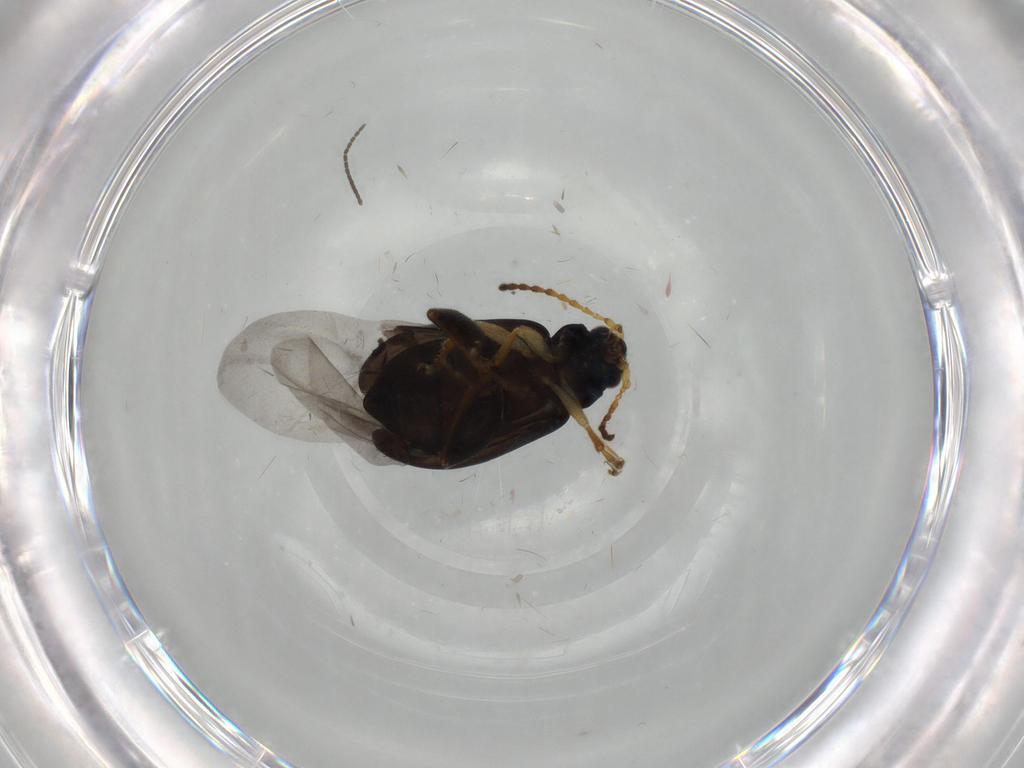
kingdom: Animalia
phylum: Arthropoda
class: Insecta
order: Coleoptera
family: Chrysomelidae
